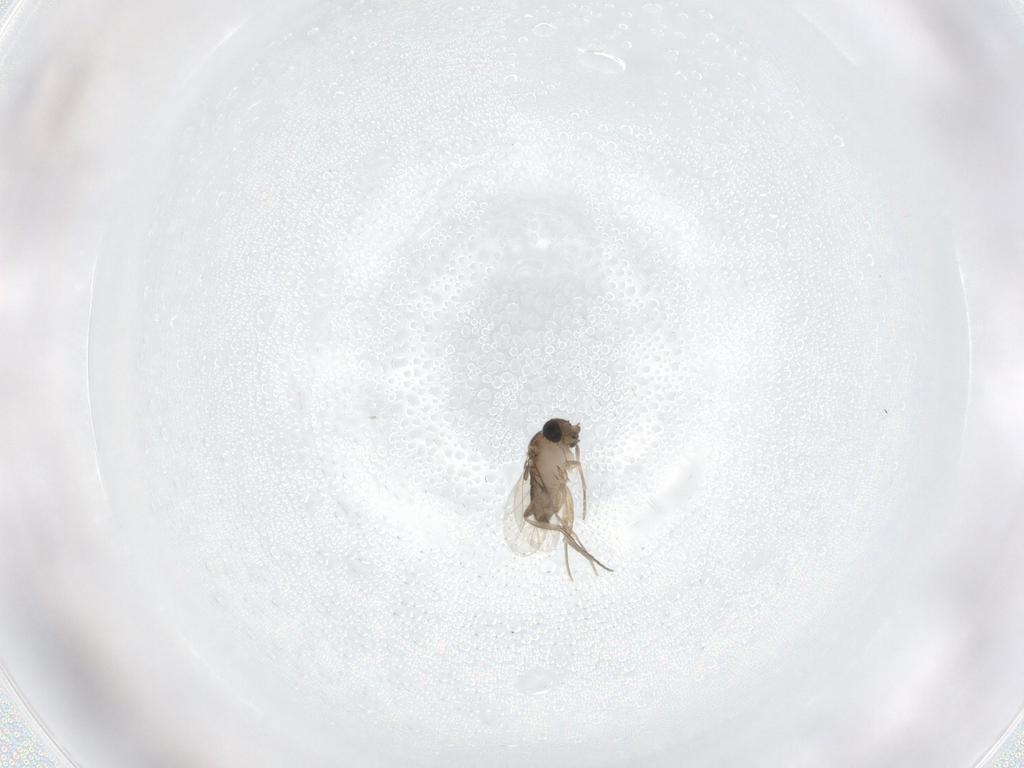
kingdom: Animalia
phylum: Arthropoda
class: Insecta
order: Diptera
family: Phoridae
